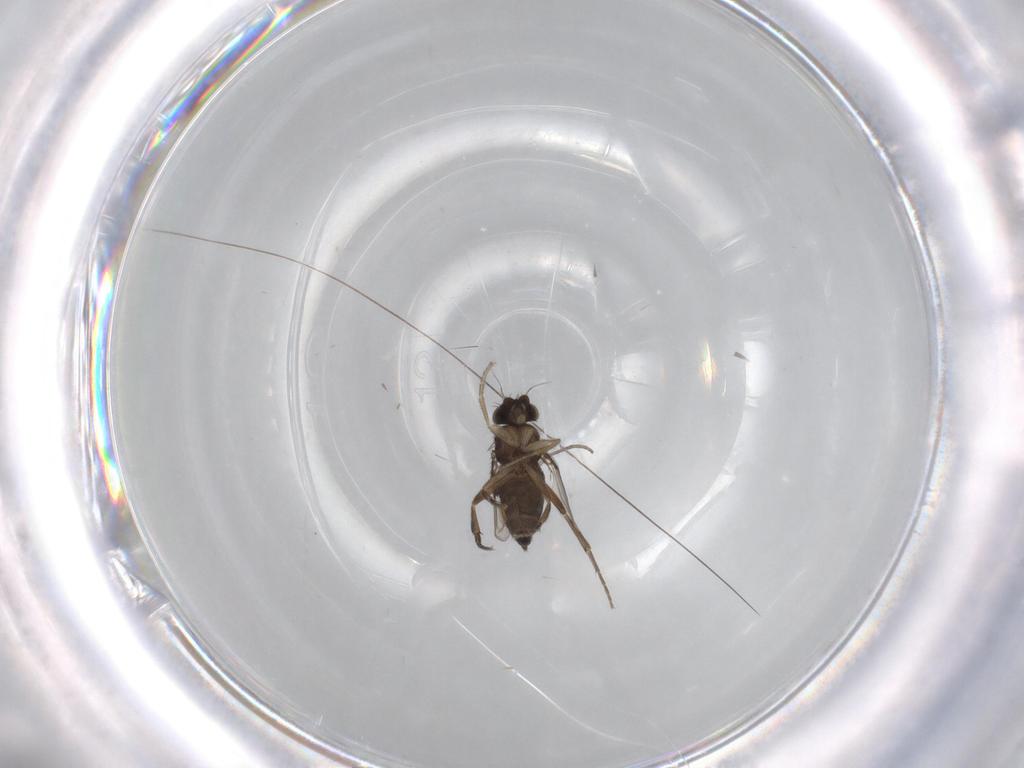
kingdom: Animalia
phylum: Arthropoda
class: Insecta
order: Diptera
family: Phoridae
